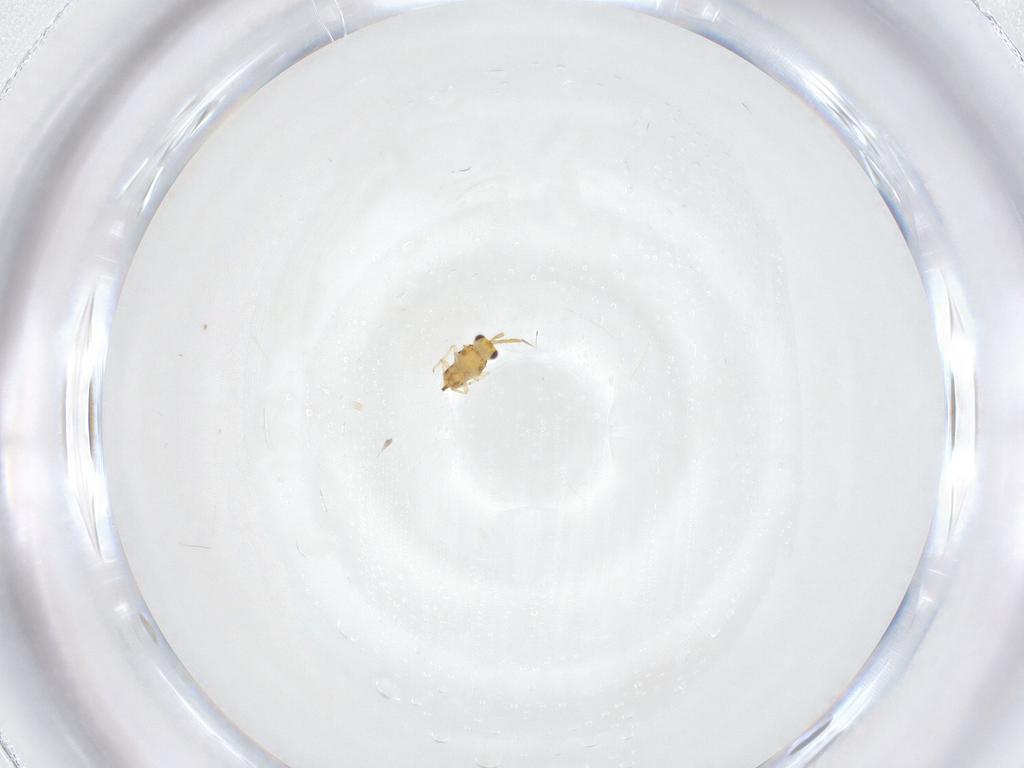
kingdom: Animalia
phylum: Arthropoda
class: Insecta
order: Hymenoptera
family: Aphelinidae
